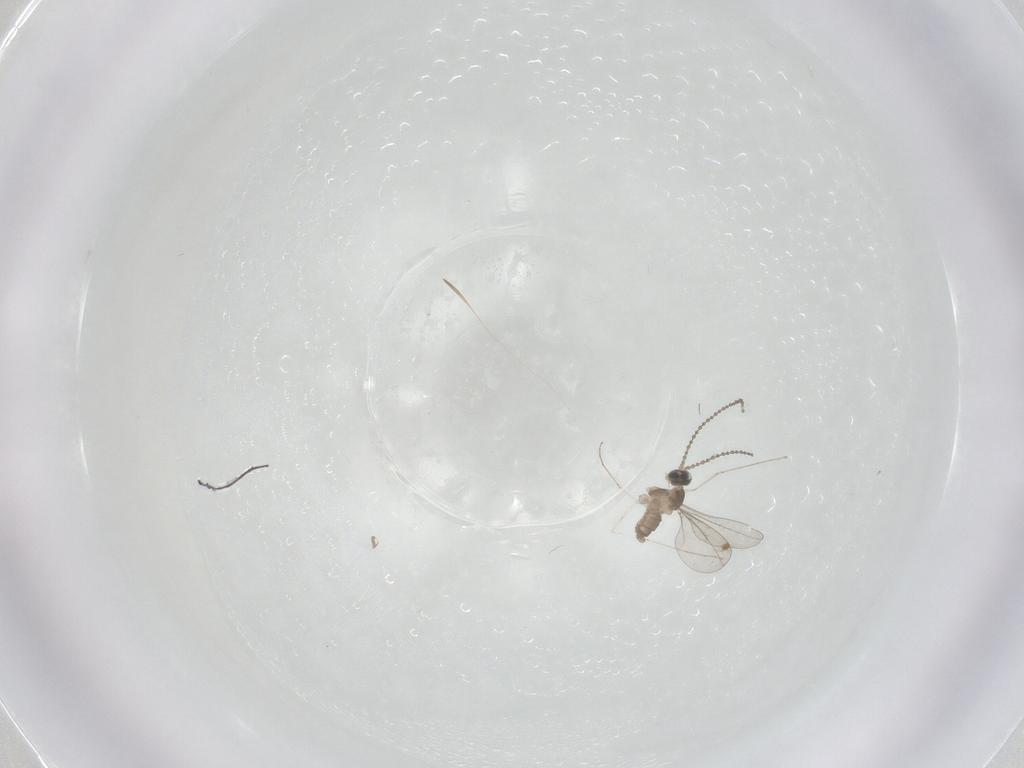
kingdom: Animalia
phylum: Arthropoda
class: Insecta
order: Diptera
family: Cecidomyiidae
